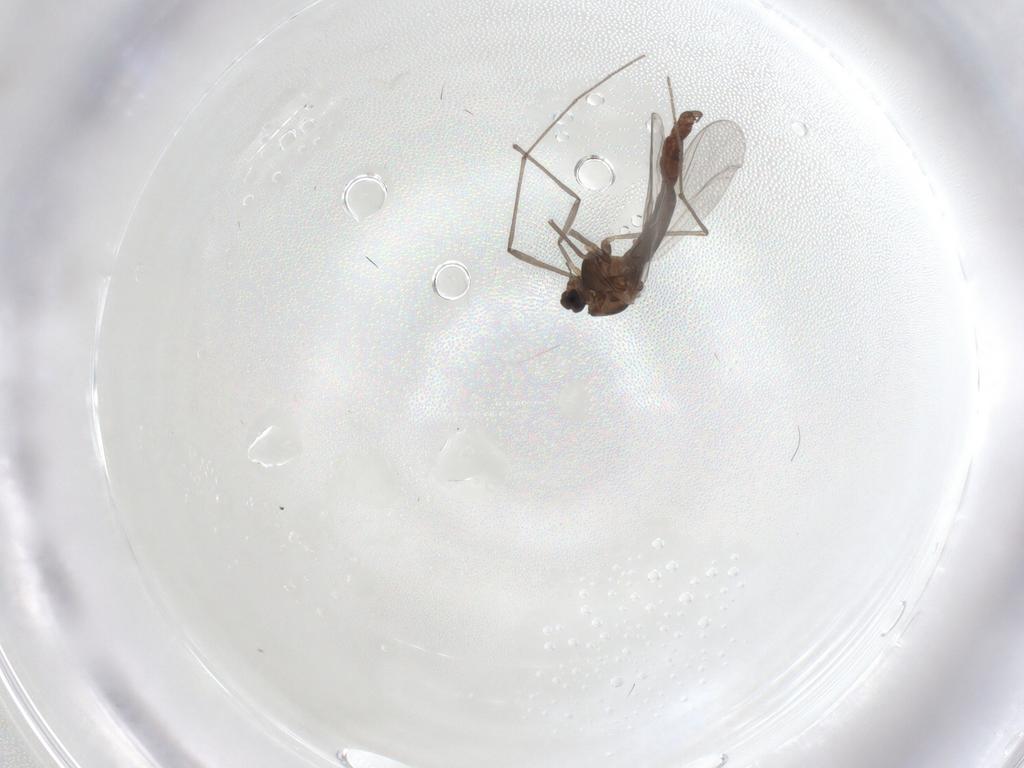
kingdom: Animalia
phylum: Arthropoda
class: Insecta
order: Diptera
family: Chironomidae
